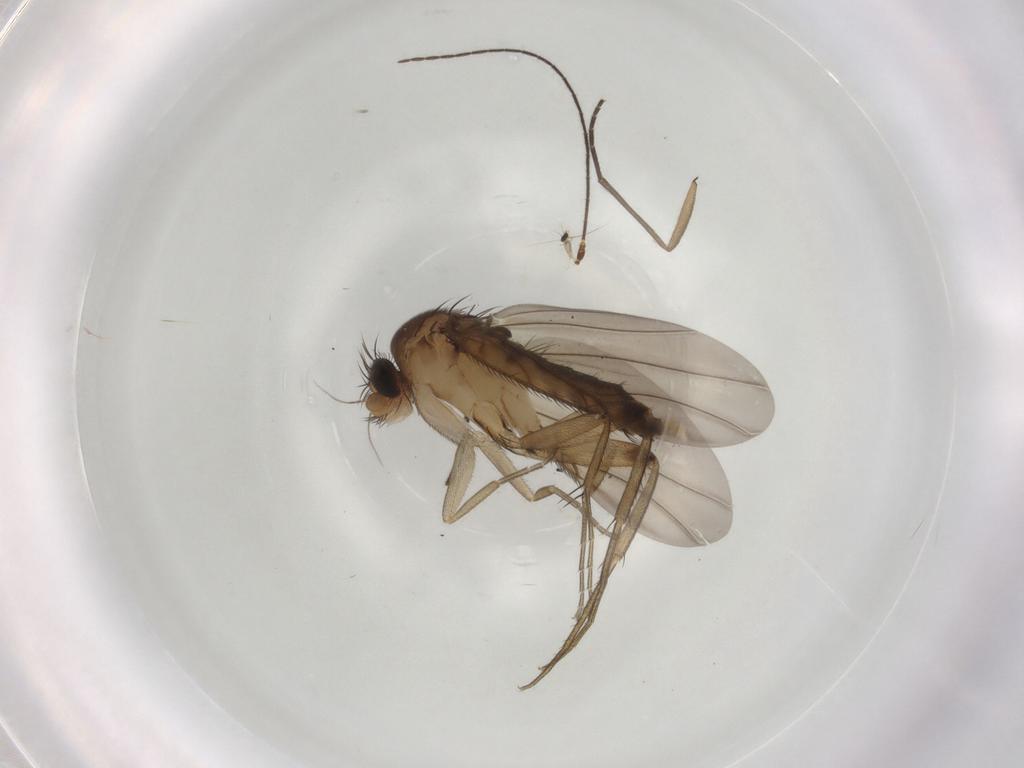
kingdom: Animalia
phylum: Arthropoda
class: Insecta
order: Diptera
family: Phoridae
